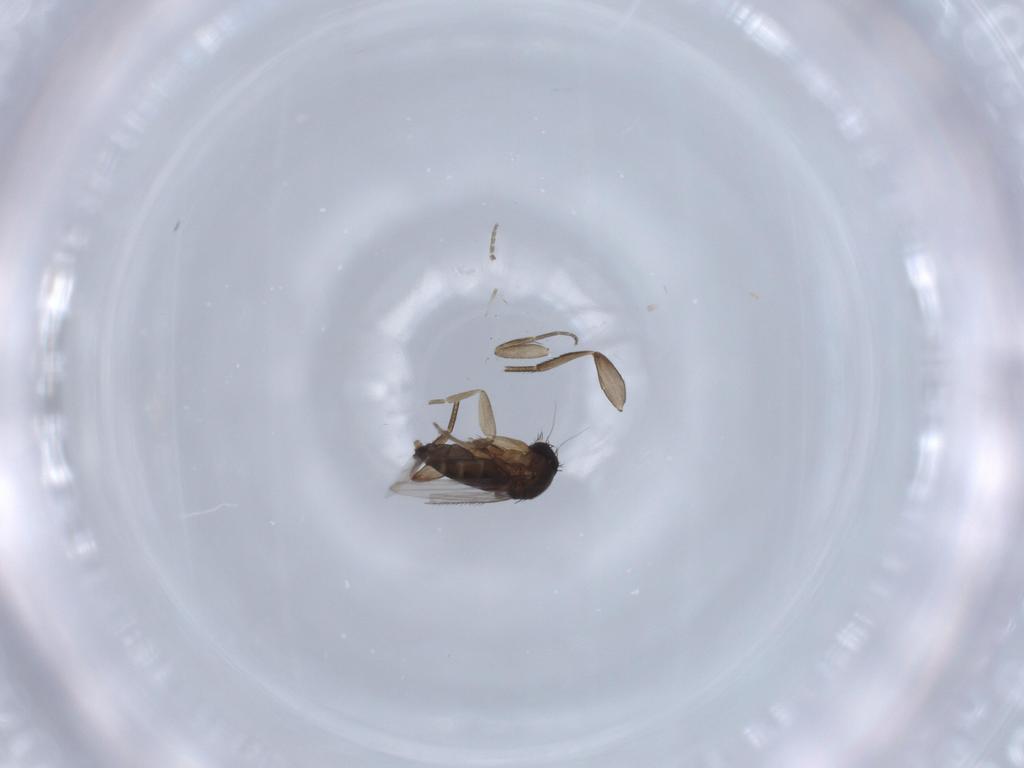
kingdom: Animalia
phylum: Arthropoda
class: Insecta
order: Diptera
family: Phoridae
